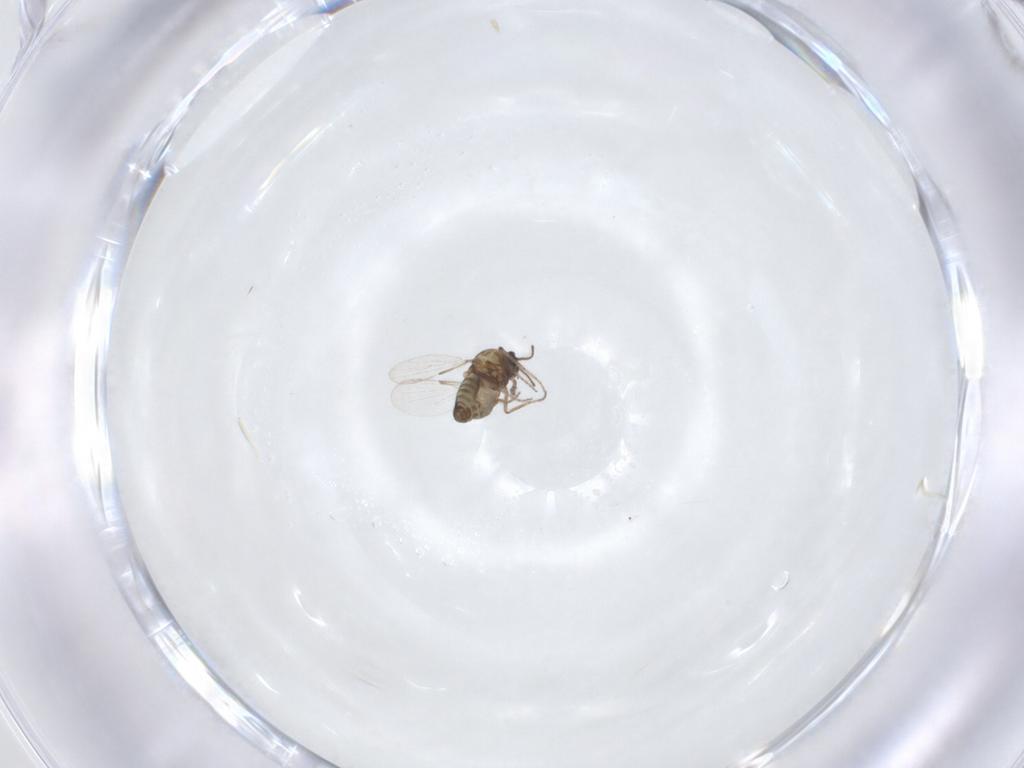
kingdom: Animalia
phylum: Arthropoda
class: Insecta
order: Diptera
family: Ceratopogonidae
